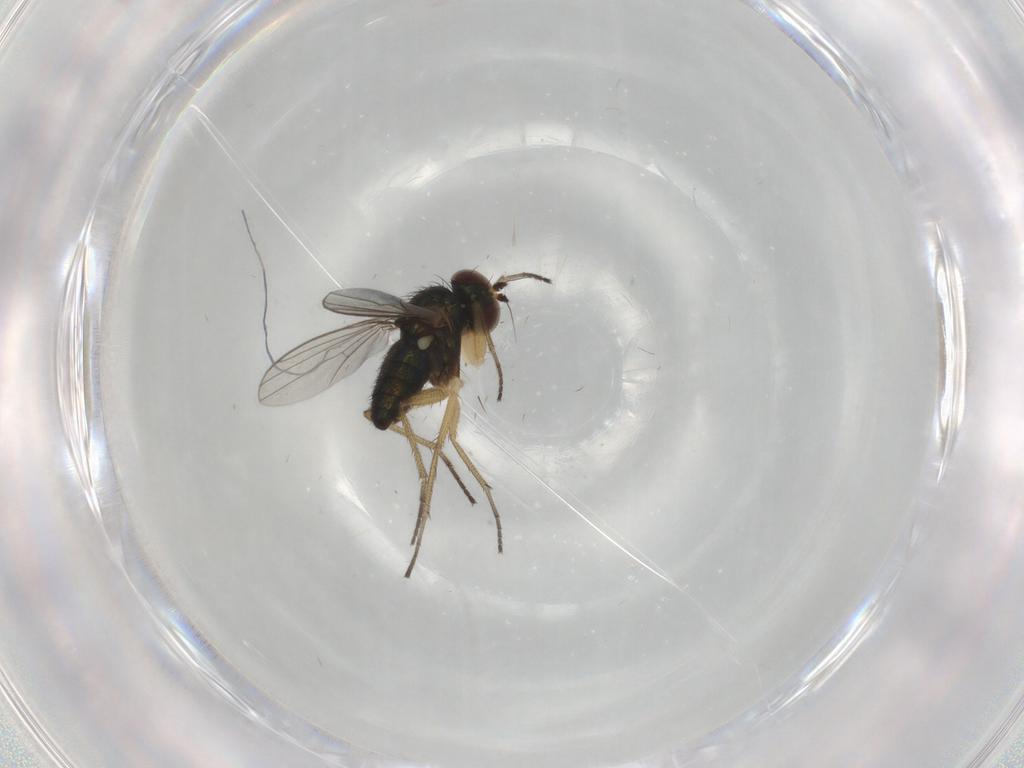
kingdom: Animalia
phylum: Arthropoda
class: Insecta
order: Diptera
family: Dolichopodidae
